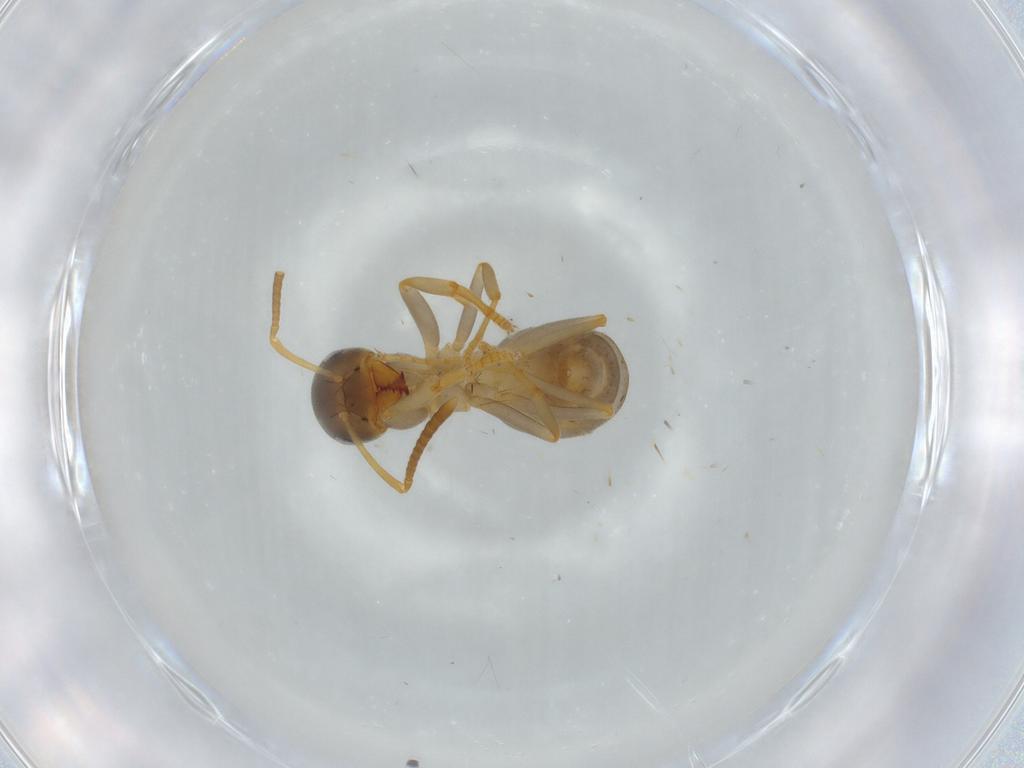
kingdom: Animalia
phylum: Arthropoda
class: Insecta
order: Hymenoptera
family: Formicidae
